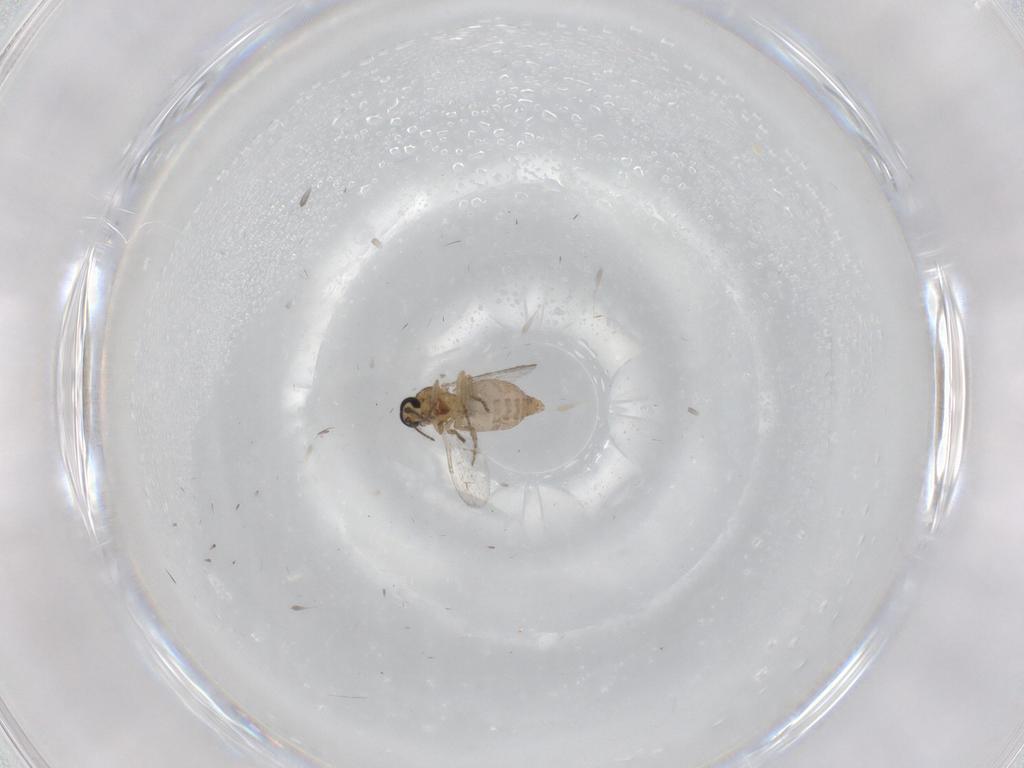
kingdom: Animalia
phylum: Arthropoda
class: Insecta
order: Diptera
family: Ceratopogonidae
